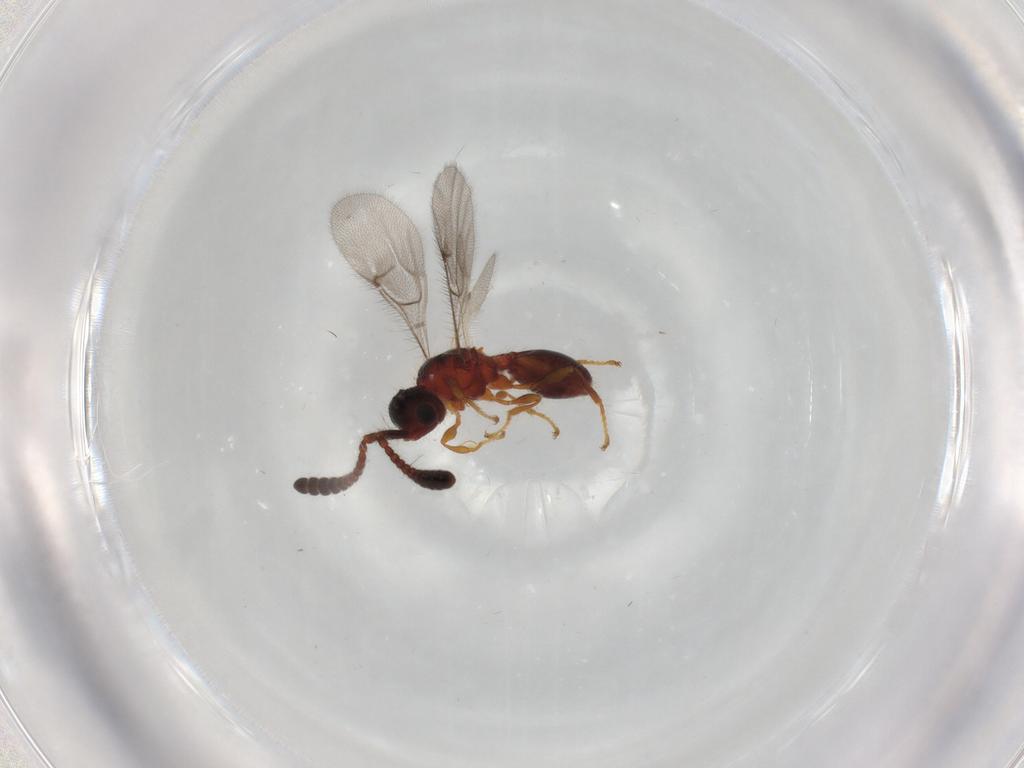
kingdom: Animalia
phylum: Arthropoda
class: Insecta
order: Hymenoptera
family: Diapriidae
